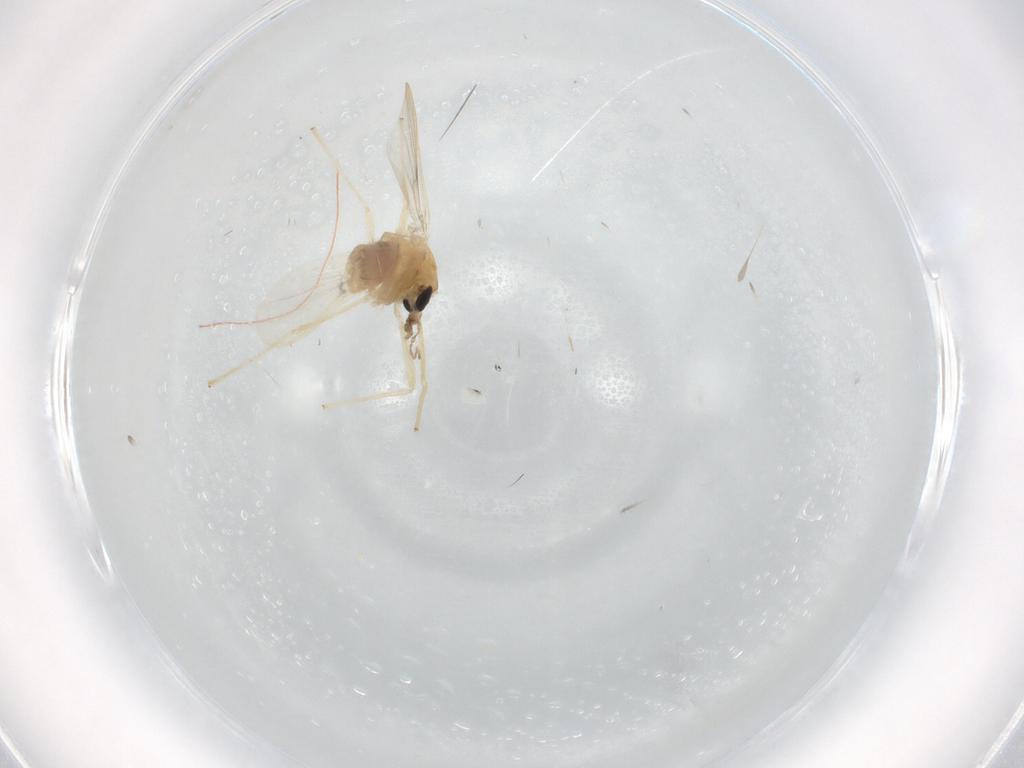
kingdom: Animalia
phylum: Arthropoda
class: Insecta
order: Diptera
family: Chironomidae
